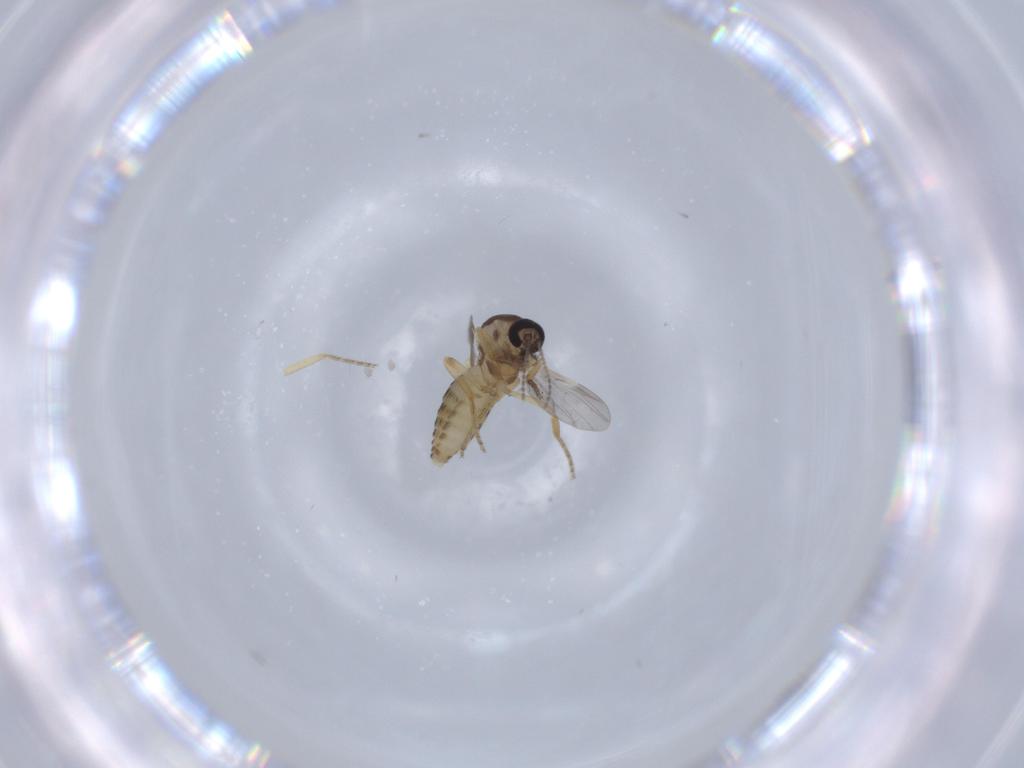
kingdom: Animalia
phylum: Arthropoda
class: Insecta
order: Diptera
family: Ceratopogonidae
